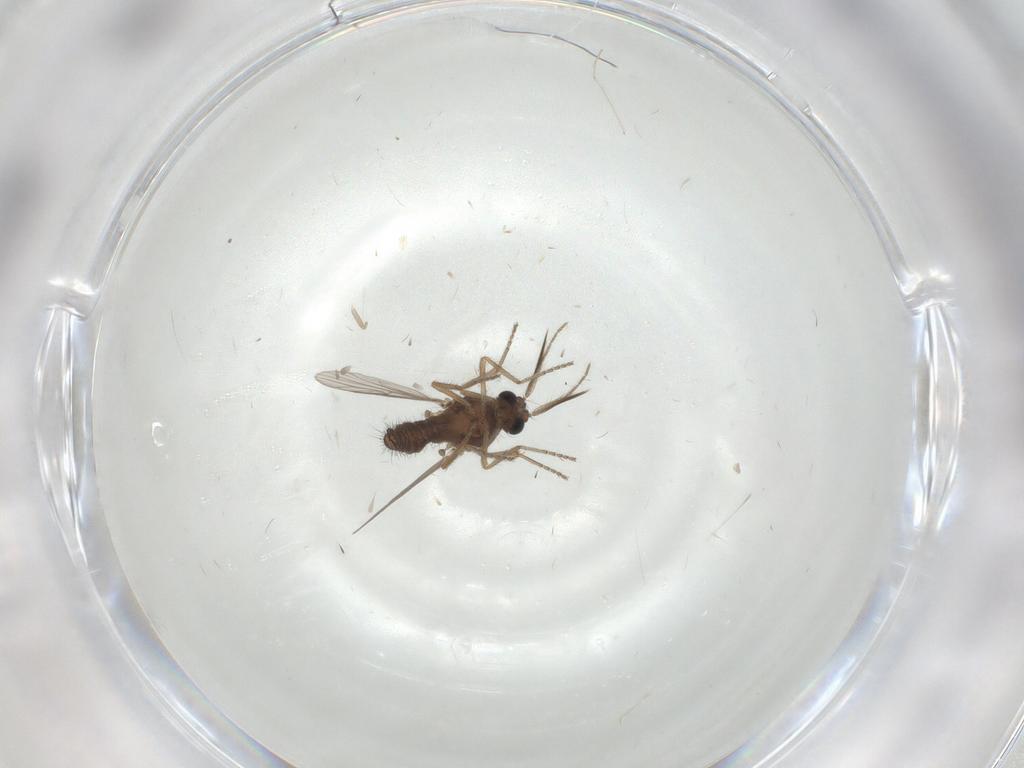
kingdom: Animalia
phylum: Arthropoda
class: Insecta
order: Diptera
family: Ceratopogonidae
